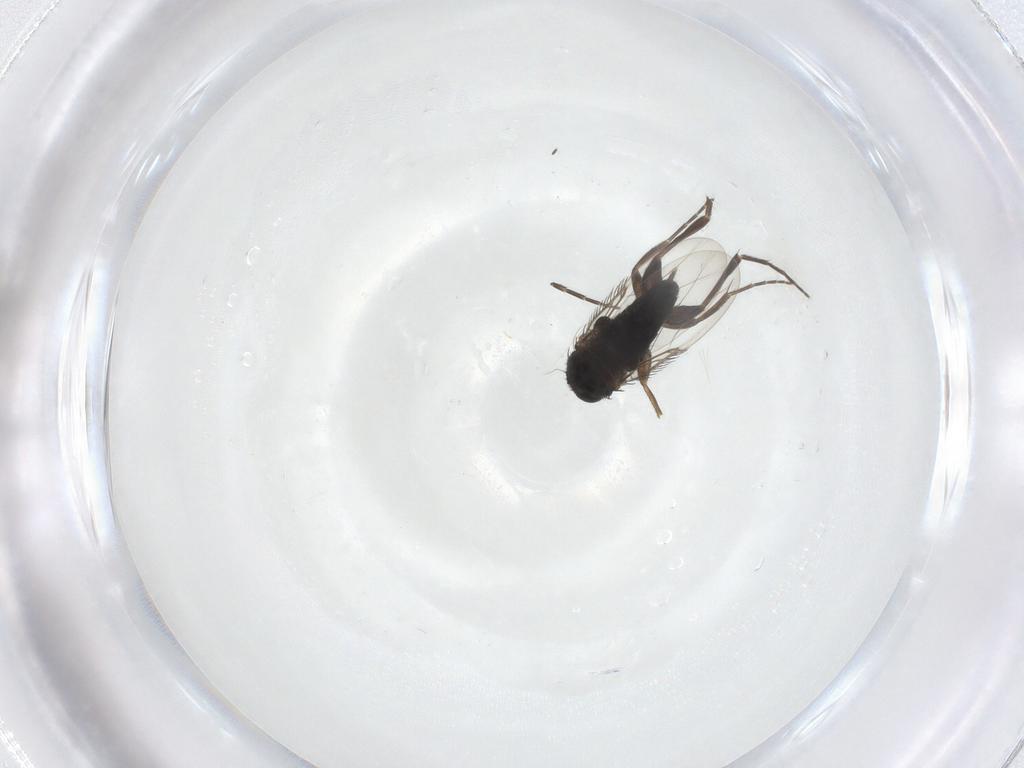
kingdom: Animalia
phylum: Arthropoda
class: Insecta
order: Diptera
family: Phoridae
